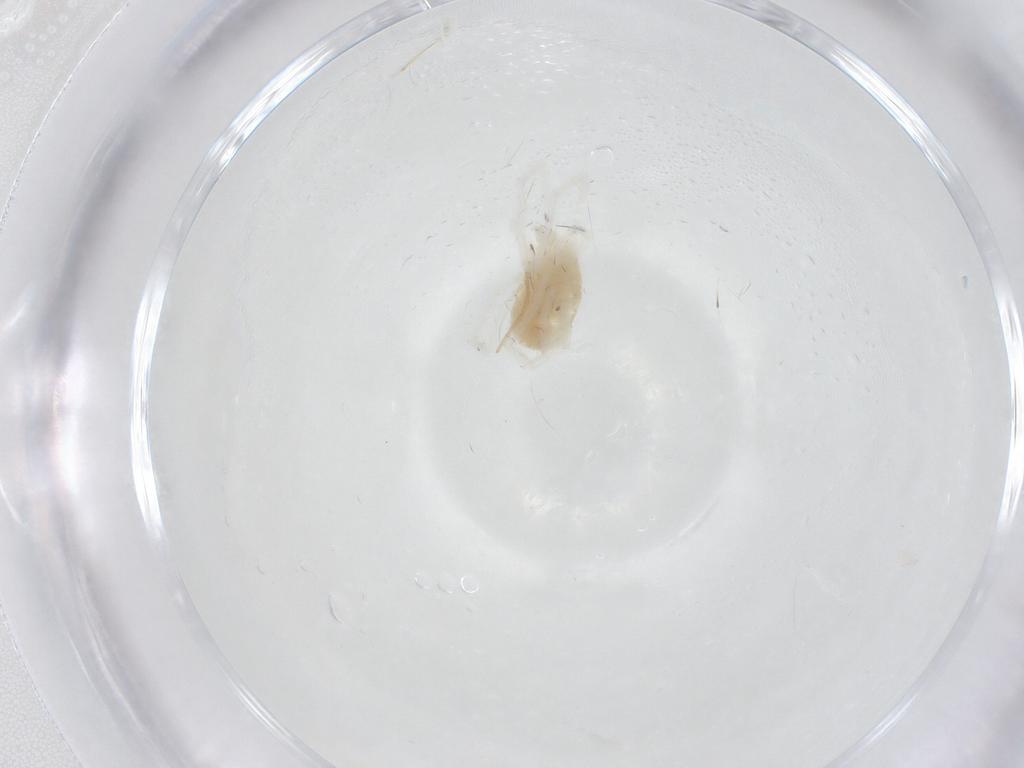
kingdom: Animalia
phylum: Arthropoda
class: Arachnida
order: Trombidiformes
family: Teneriffiidae
